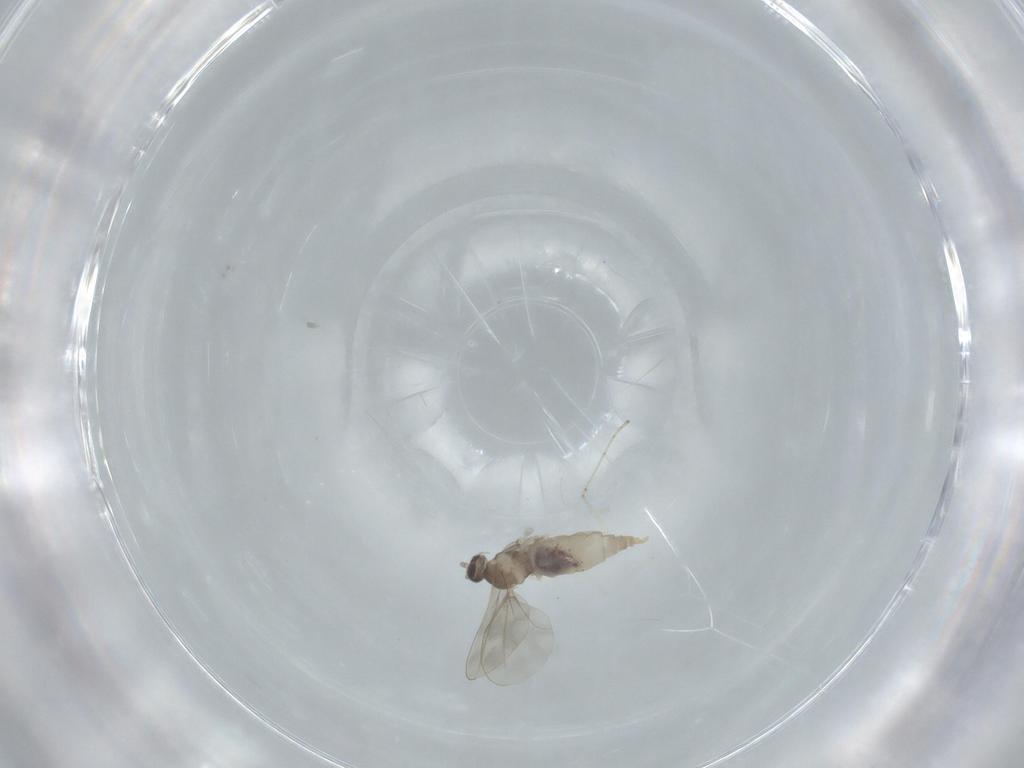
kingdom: Animalia
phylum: Arthropoda
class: Insecta
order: Diptera
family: Cecidomyiidae
